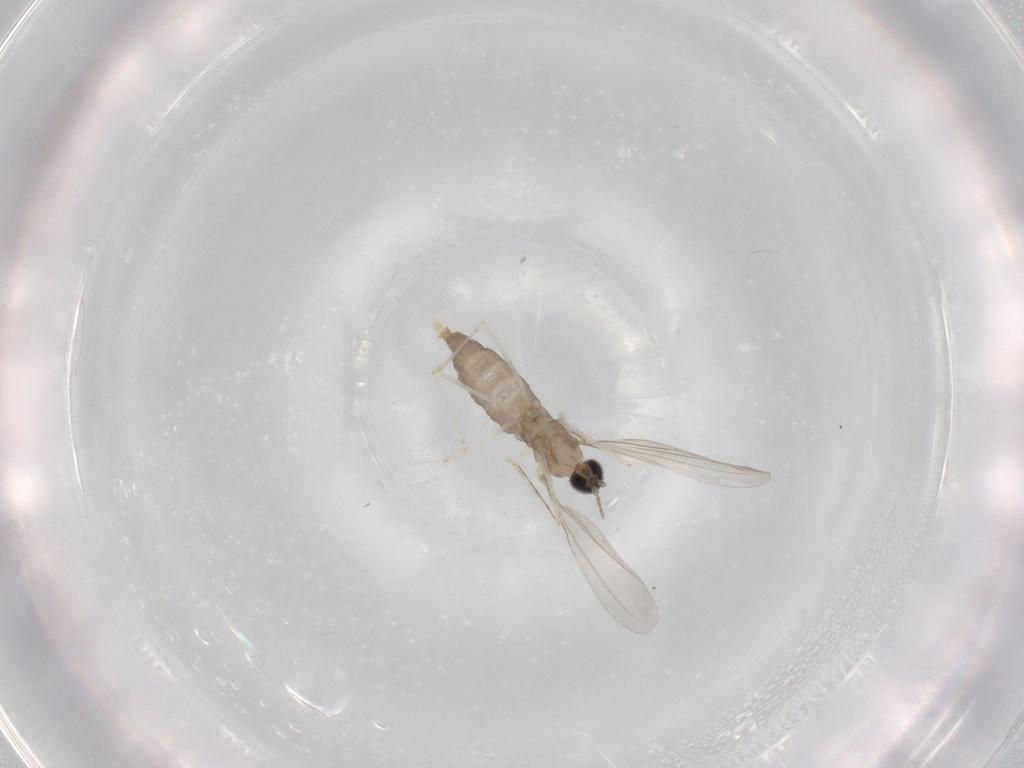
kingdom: Animalia
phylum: Arthropoda
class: Insecta
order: Diptera
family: Cecidomyiidae
